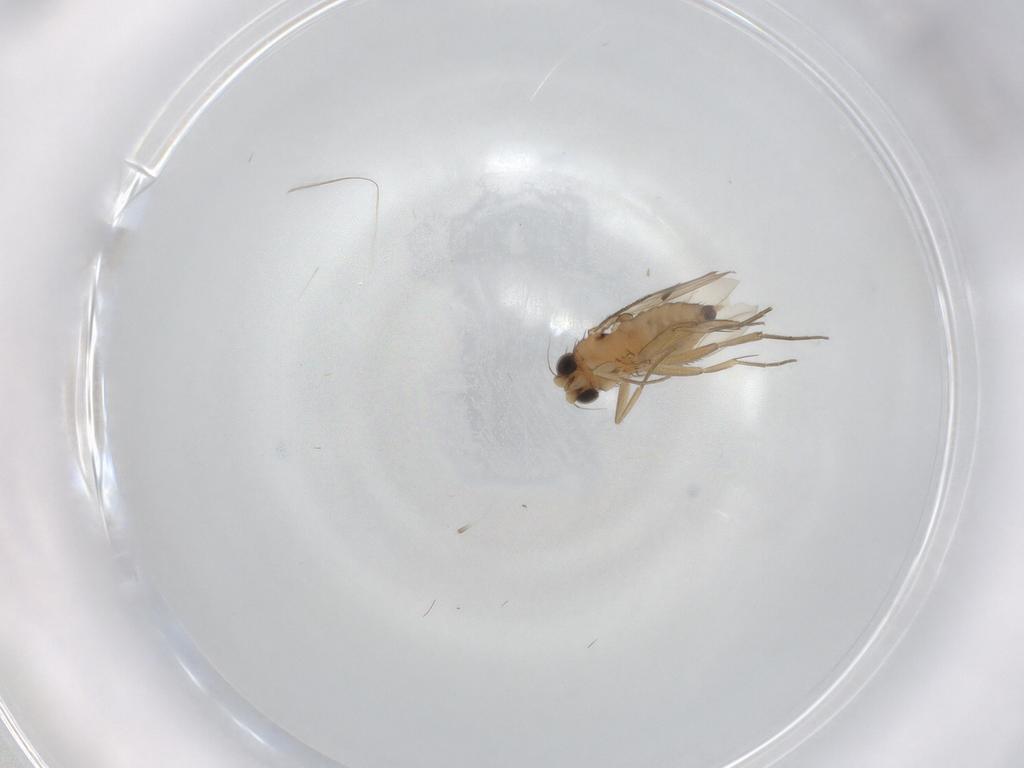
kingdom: Animalia
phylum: Arthropoda
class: Insecta
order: Diptera
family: Phoridae
